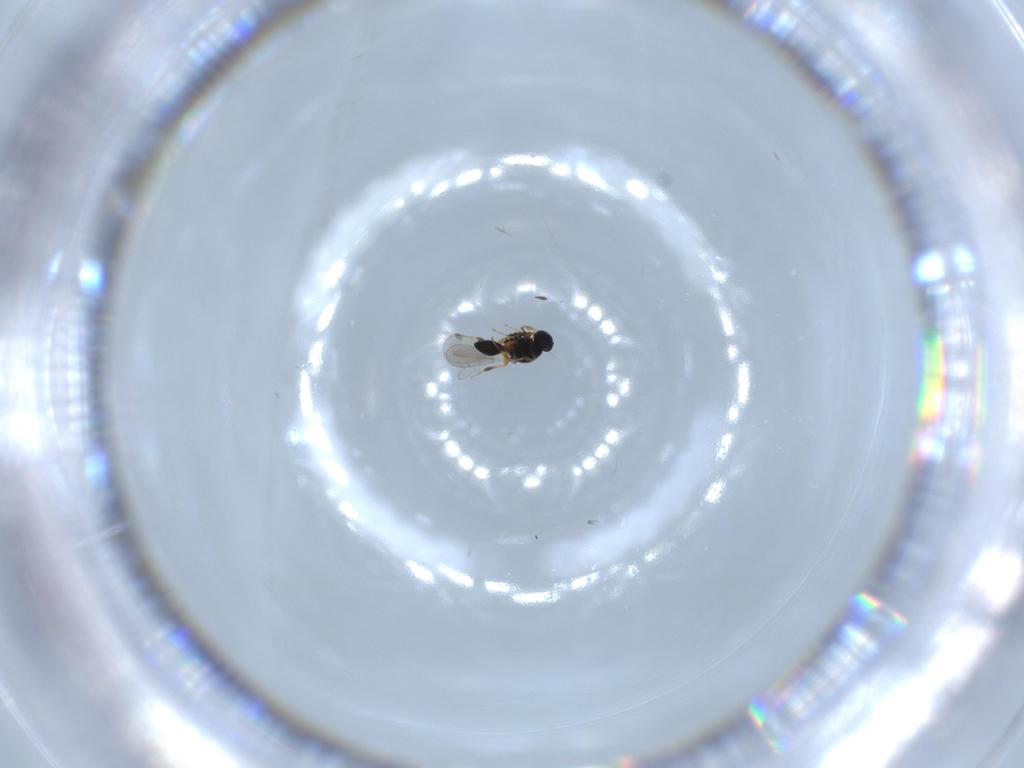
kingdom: Animalia
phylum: Arthropoda
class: Insecta
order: Hymenoptera
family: Platygastridae
